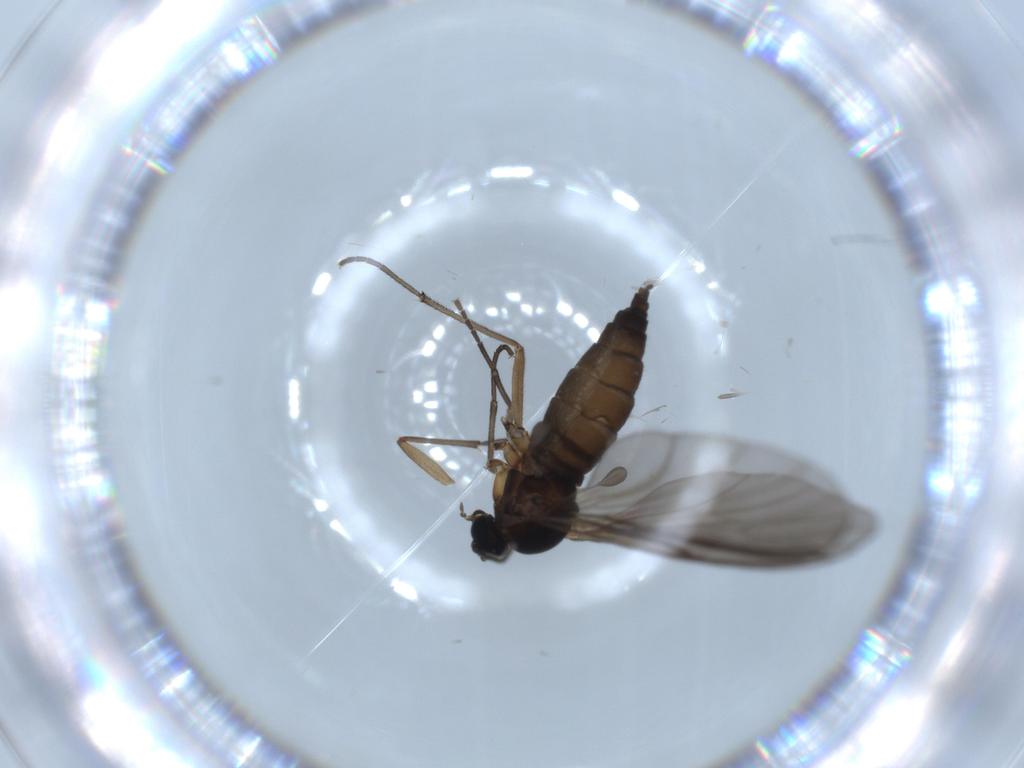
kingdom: Animalia
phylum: Arthropoda
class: Insecta
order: Diptera
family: Sciaridae
